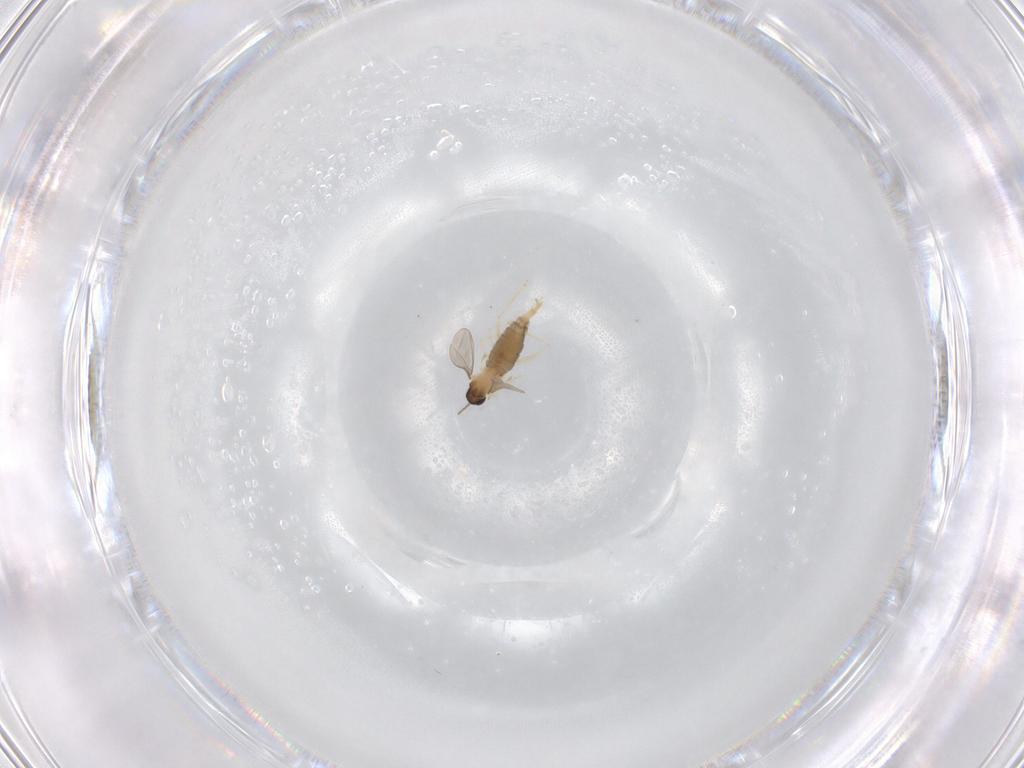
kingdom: Animalia
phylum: Arthropoda
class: Insecta
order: Diptera
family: Cecidomyiidae
